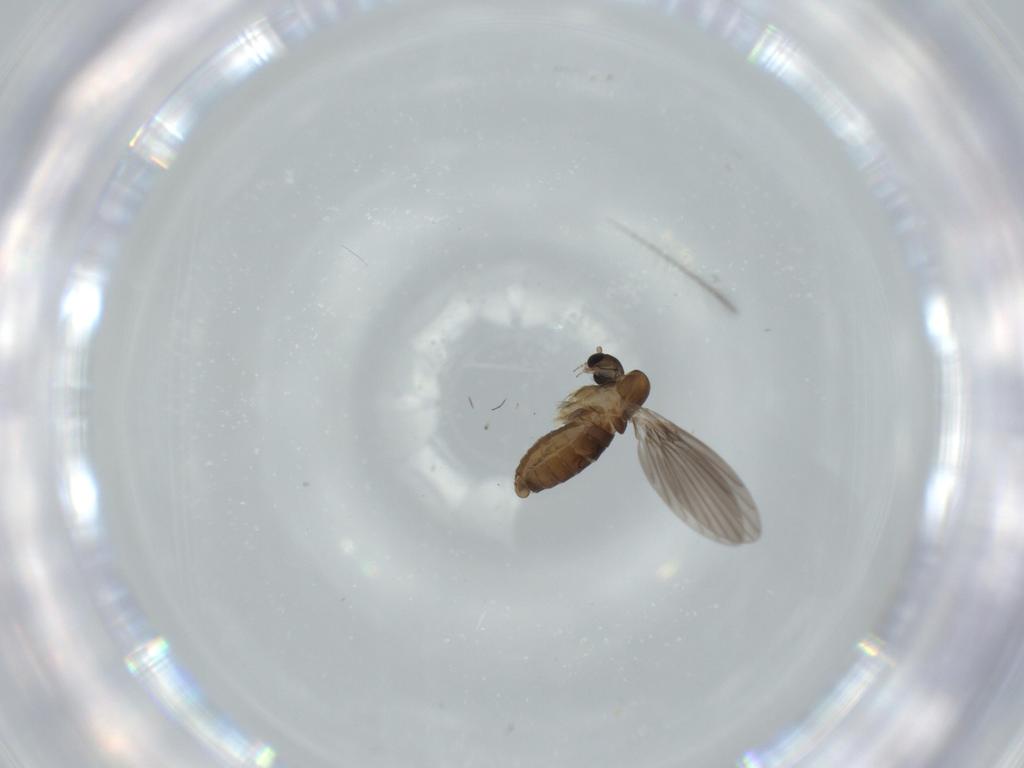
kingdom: Animalia
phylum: Arthropoda
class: Insecta
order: Diptera
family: Psychodidae
